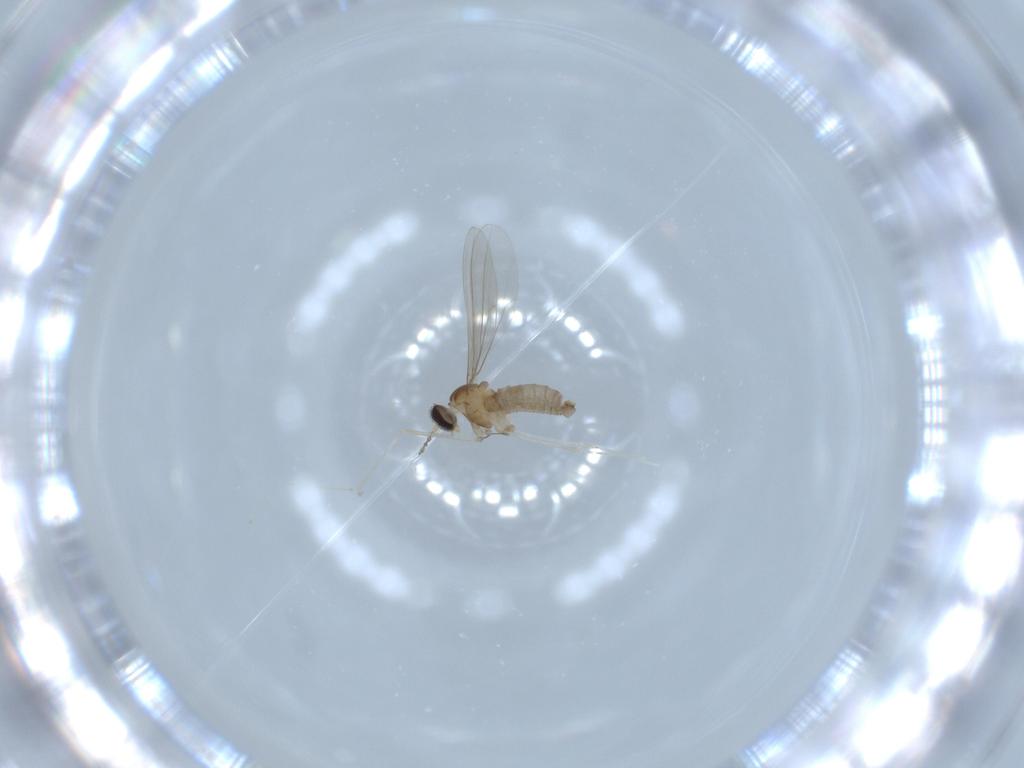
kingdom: Animalia
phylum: Arthropoda
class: Insecta
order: Diptera
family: Cecidomyiidae
